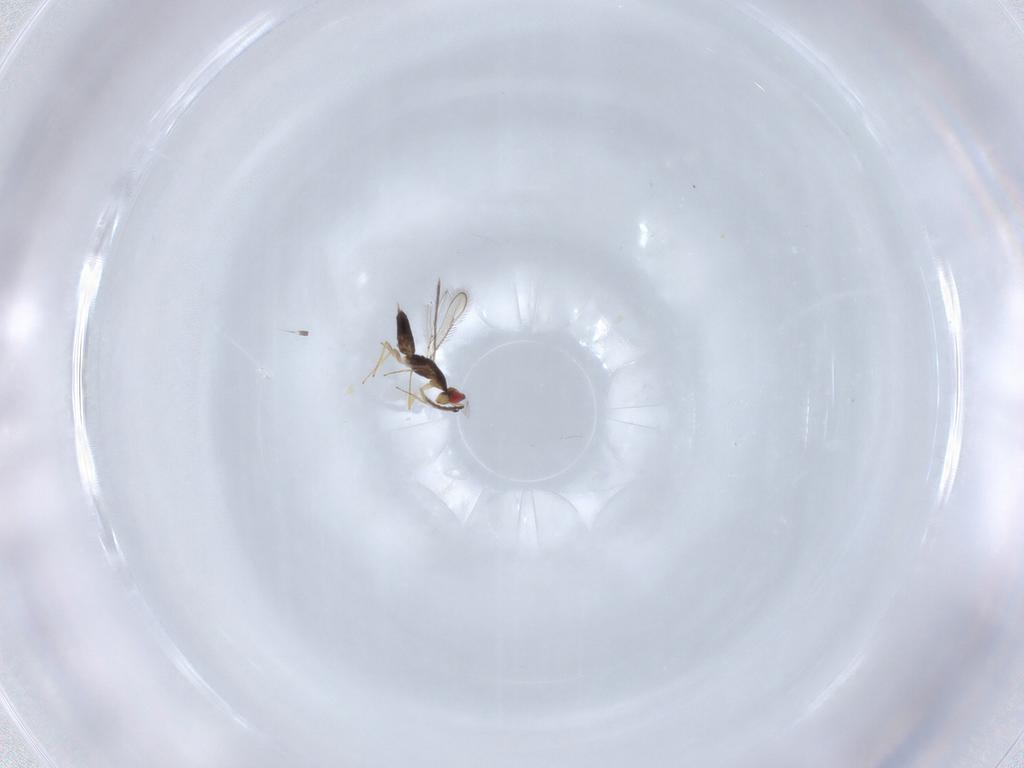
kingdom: Animalia
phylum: Arthropoda
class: Insecta
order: Hymenoptera
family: Eulophidae
